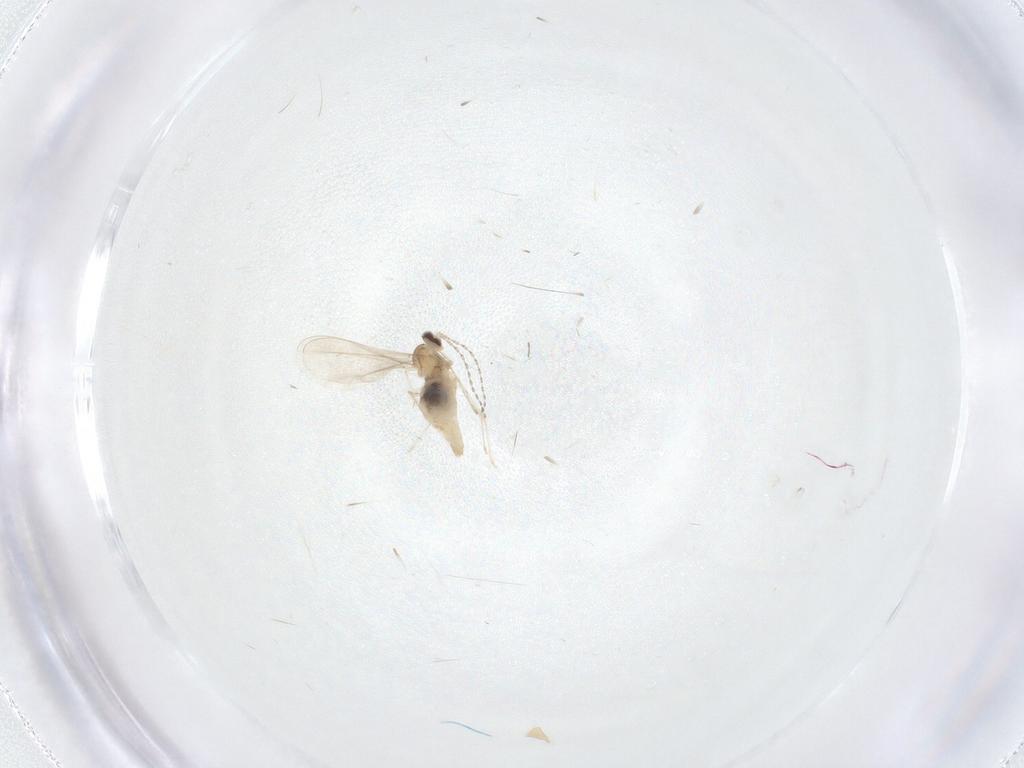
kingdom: Animalia
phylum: Arthropoda
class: Insecta
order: Diptera
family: Cecidomyiidae
